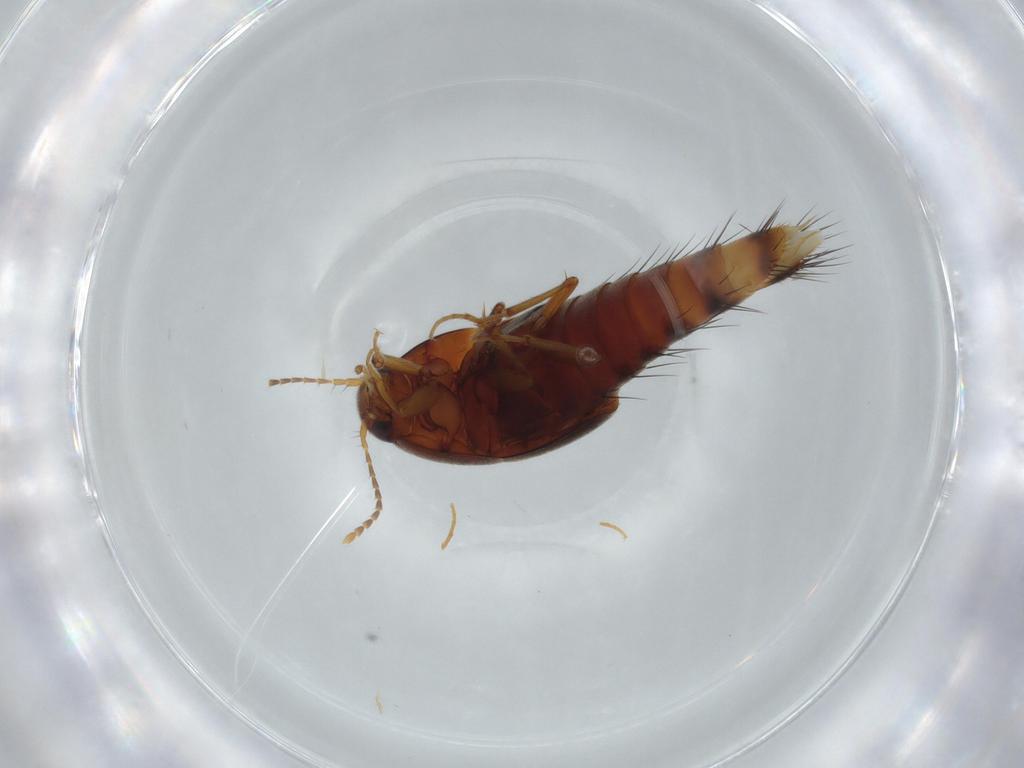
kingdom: Animalia
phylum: Arthropoda
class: Insecta
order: Coleoptera
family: Staphylinidae
